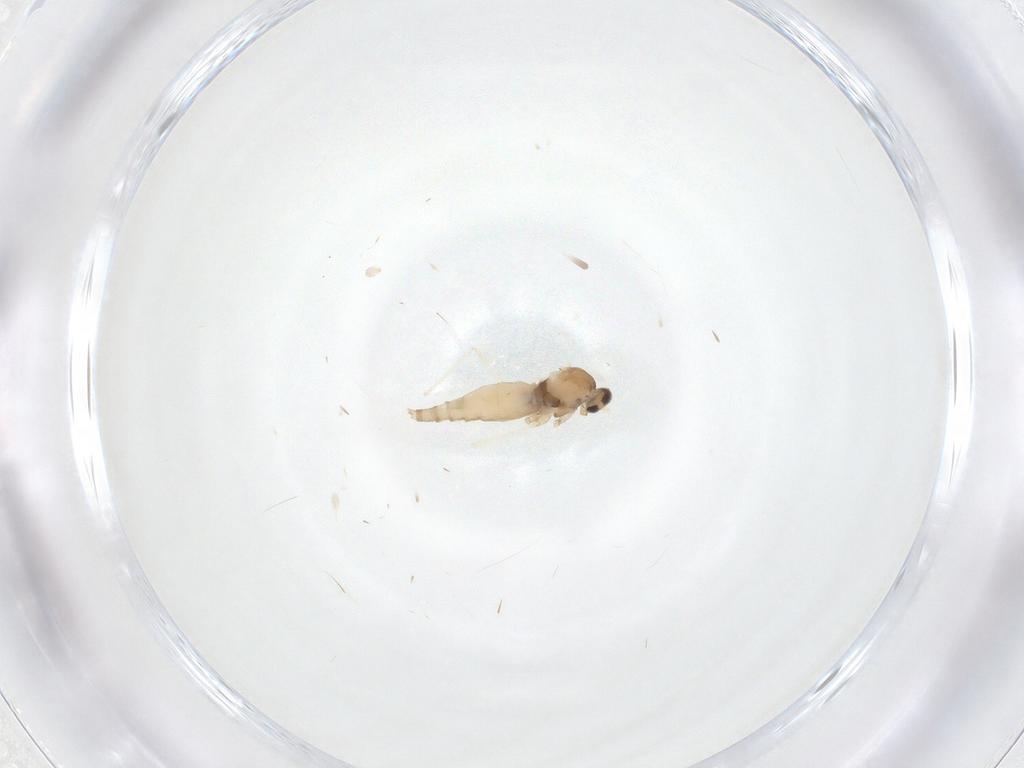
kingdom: Animalia
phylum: Arthropoda
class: Insecta
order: Diptera
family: Cecidomyiidae
